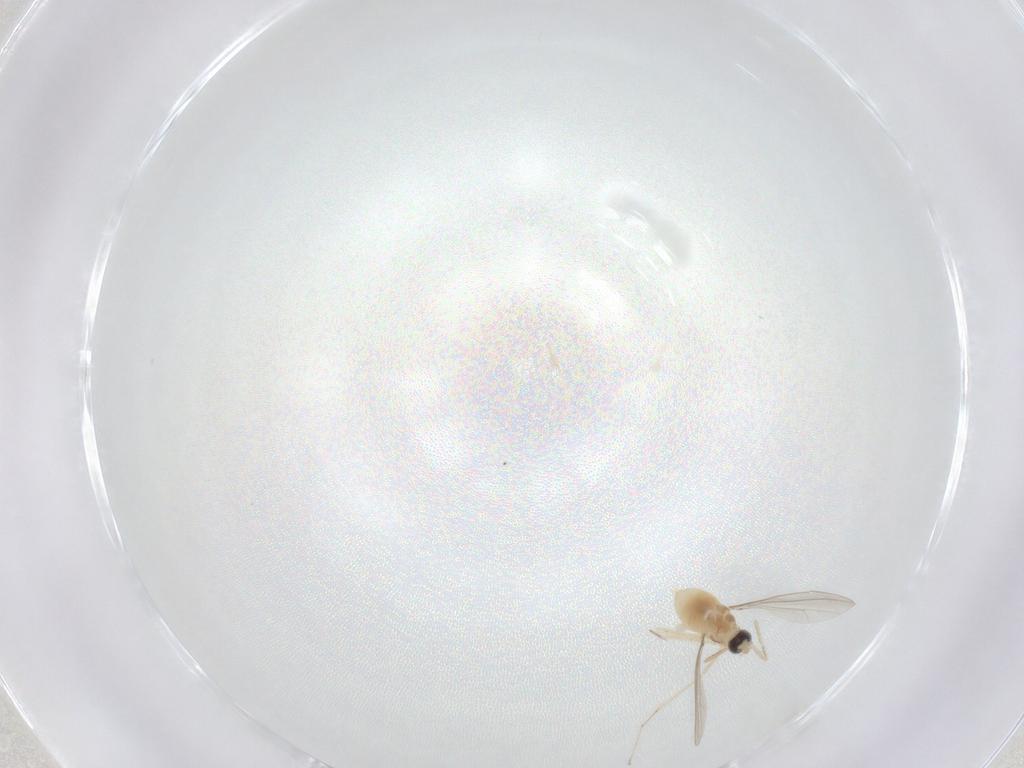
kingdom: Animalia
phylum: Arthropoda
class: Insecta
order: Diptera
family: Cecidomyiidae
